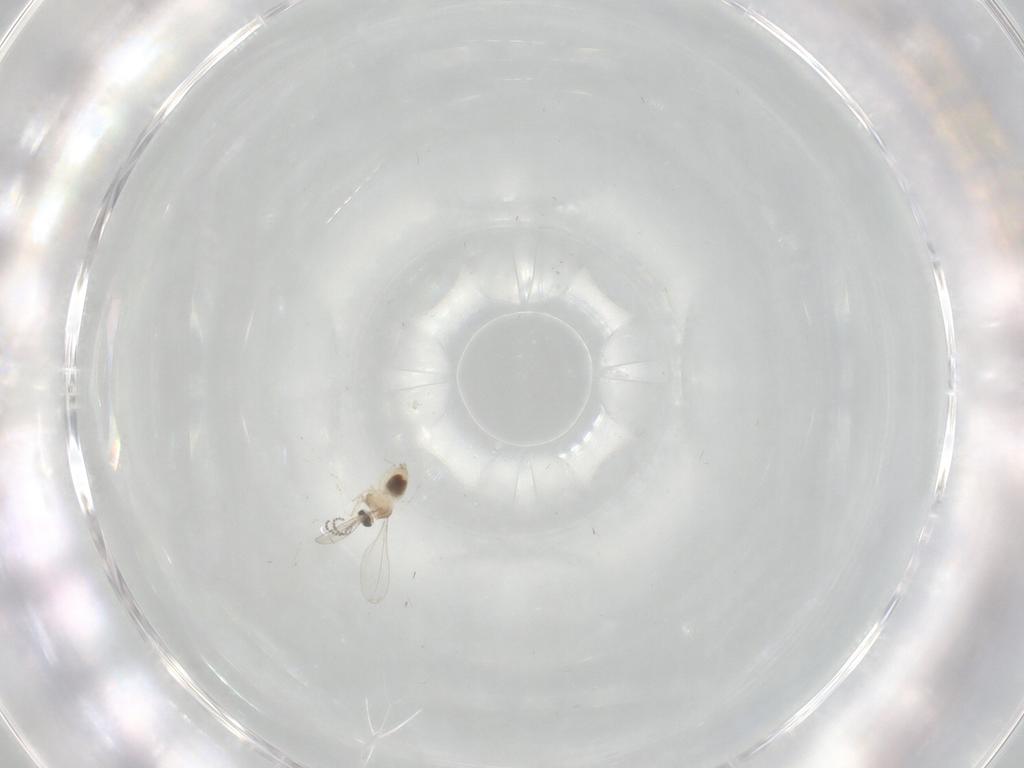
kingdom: Animalia
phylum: Arthropoda
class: Insecta
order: Diptera
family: Cecidomyiidae
